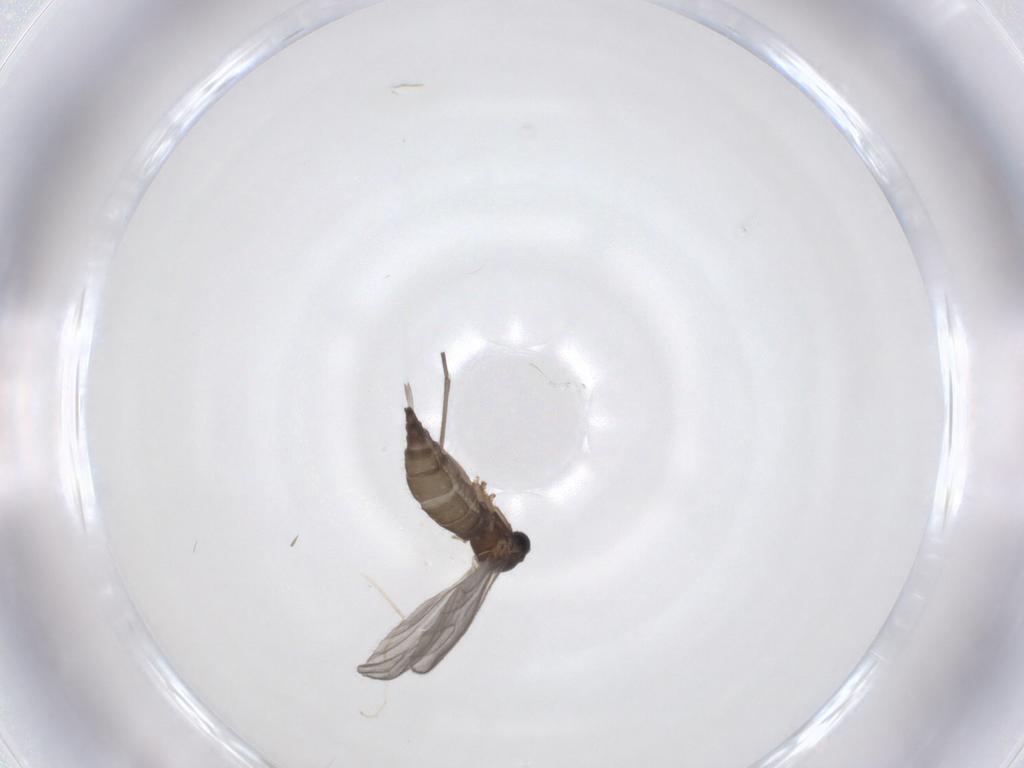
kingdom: Animalia
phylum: Arthropoda
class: Insecta
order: Diptera
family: Sciaridae
